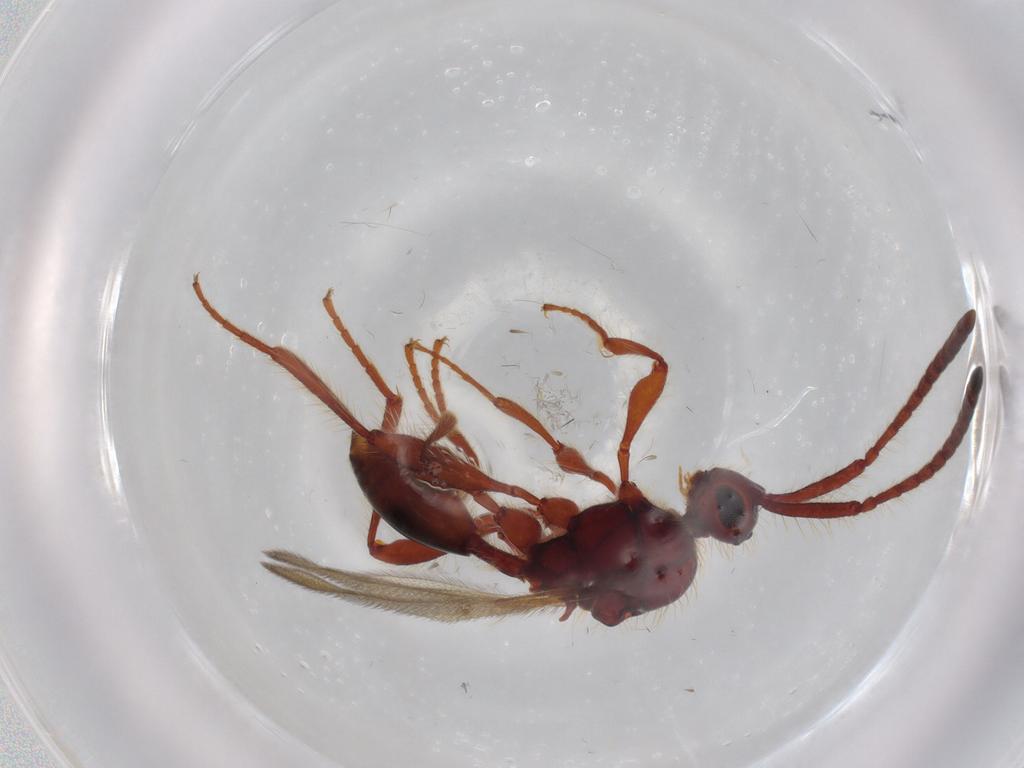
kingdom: Animalia
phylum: Arthropoda
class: Insecta
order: Hymenoptera
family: Diapriidae
